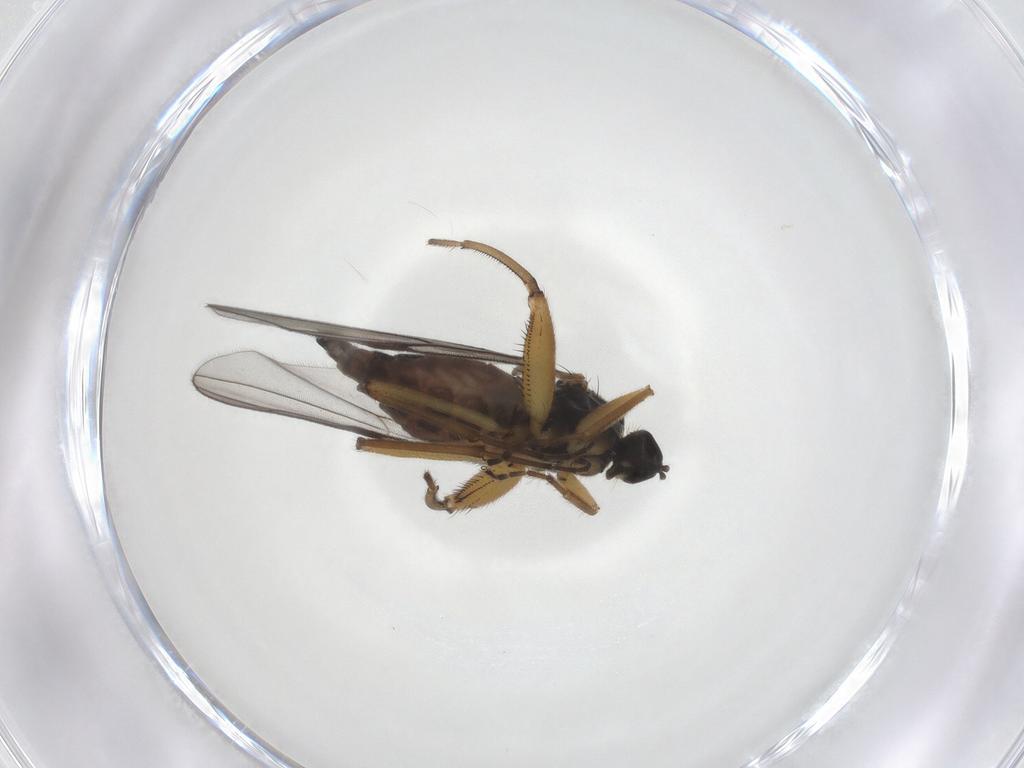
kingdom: Animalia
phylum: Arthropoda
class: Insecta
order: Diptera
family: Hybotidae
